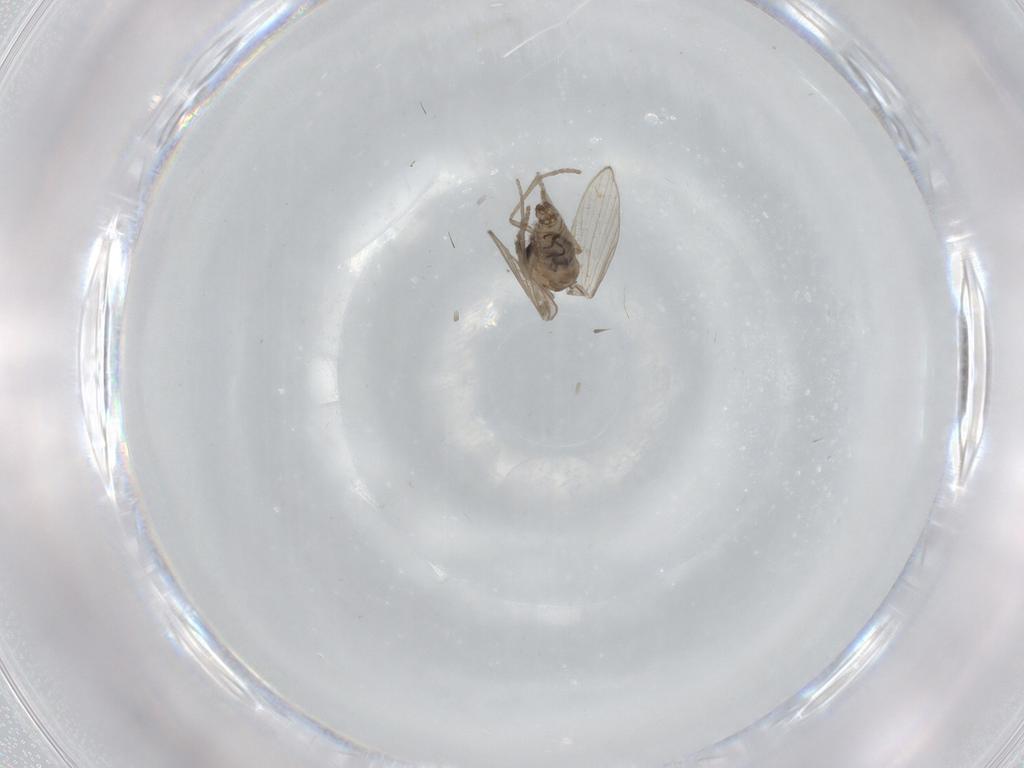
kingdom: Animalia
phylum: Arthropoda
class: Insecta
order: Diptera
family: Psychodidae
